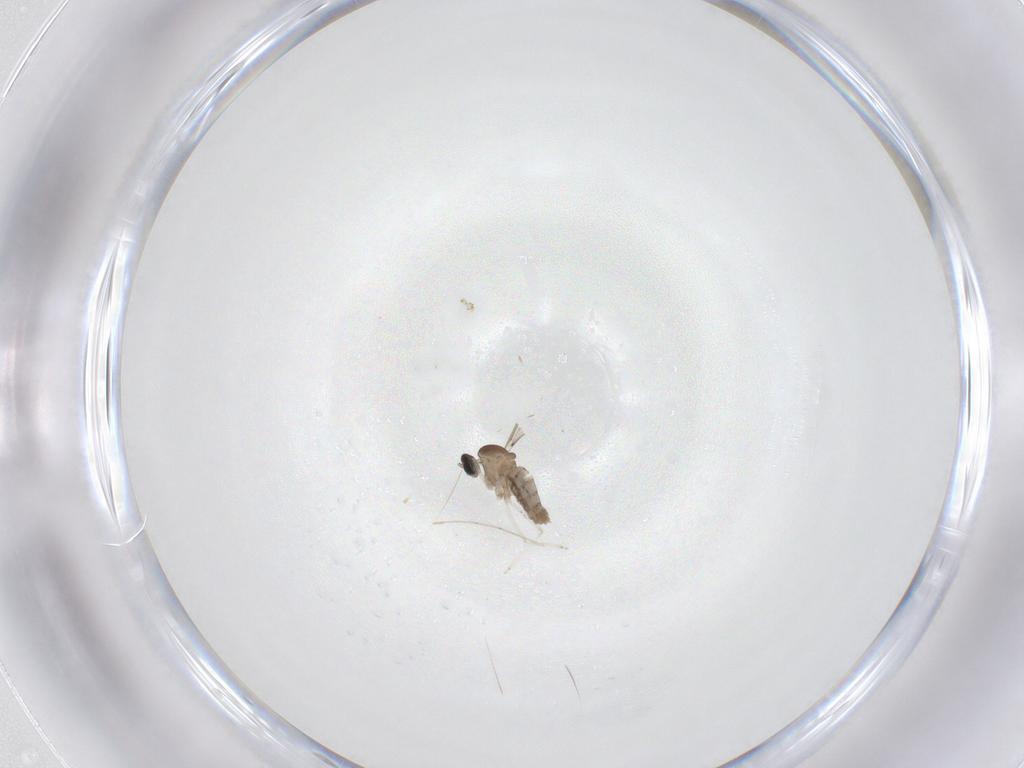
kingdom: Animalia
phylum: Arthropoda
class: Insecta
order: Diptera
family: Cecidomyiidae
